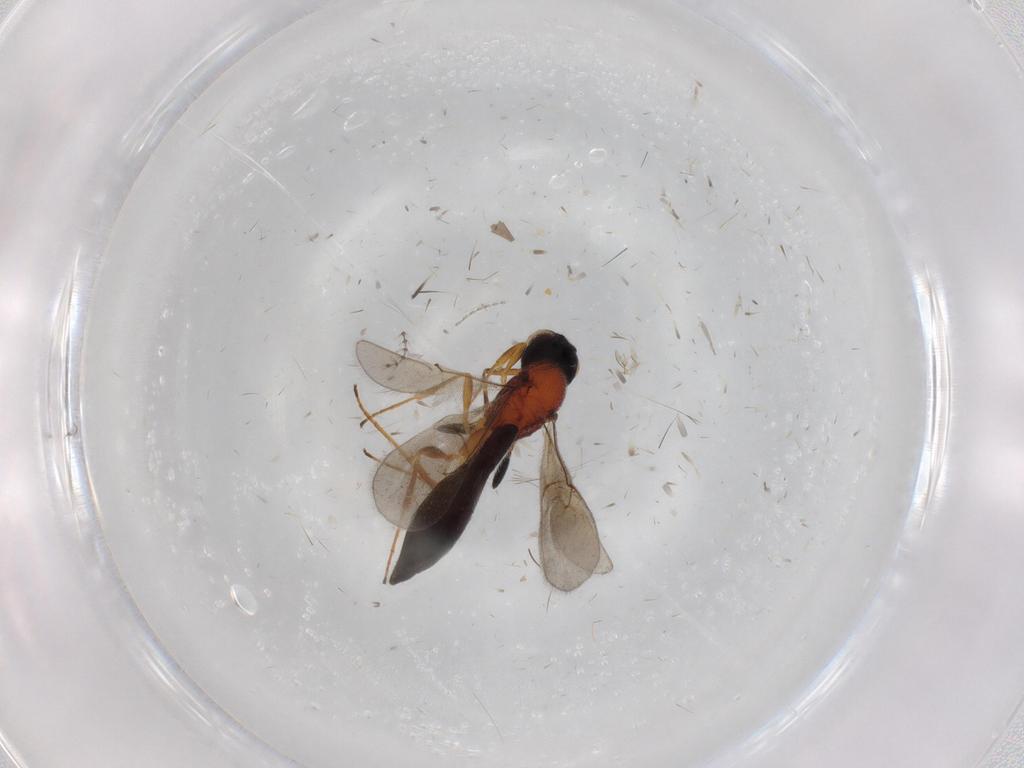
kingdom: Animalia
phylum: Arthropoda
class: Insecta
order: Hymenoptera
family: Scelionidae
